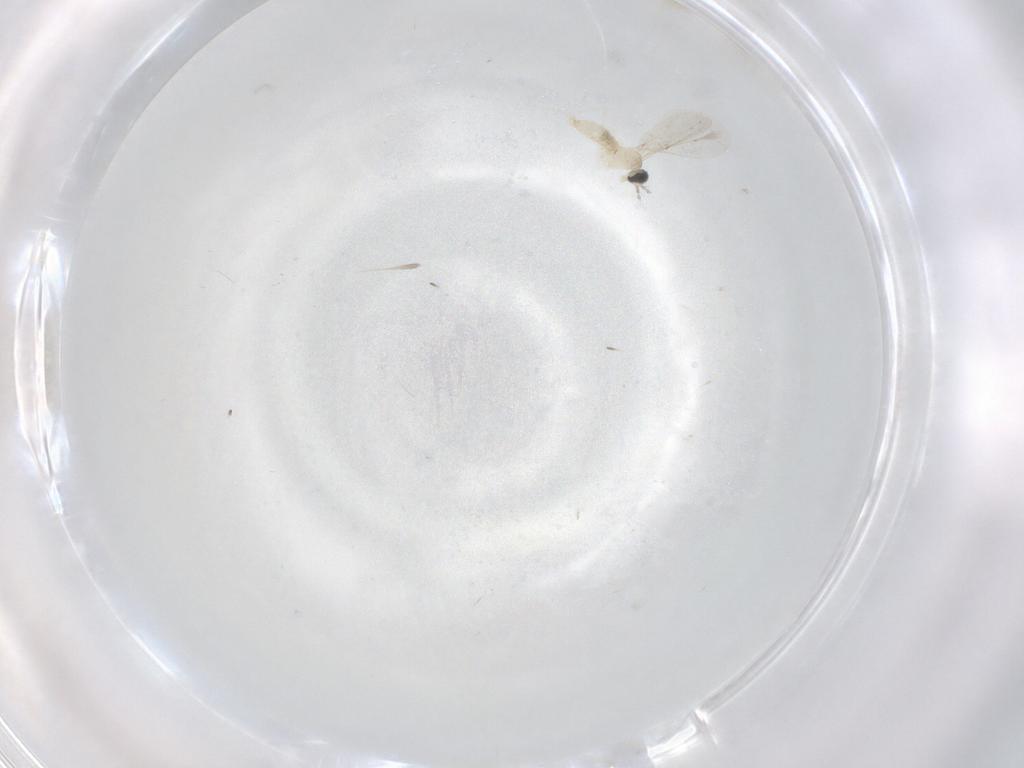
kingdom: Animalia
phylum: Arthropoda
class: Insecta
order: Diptera
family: Cecidomyiidae
